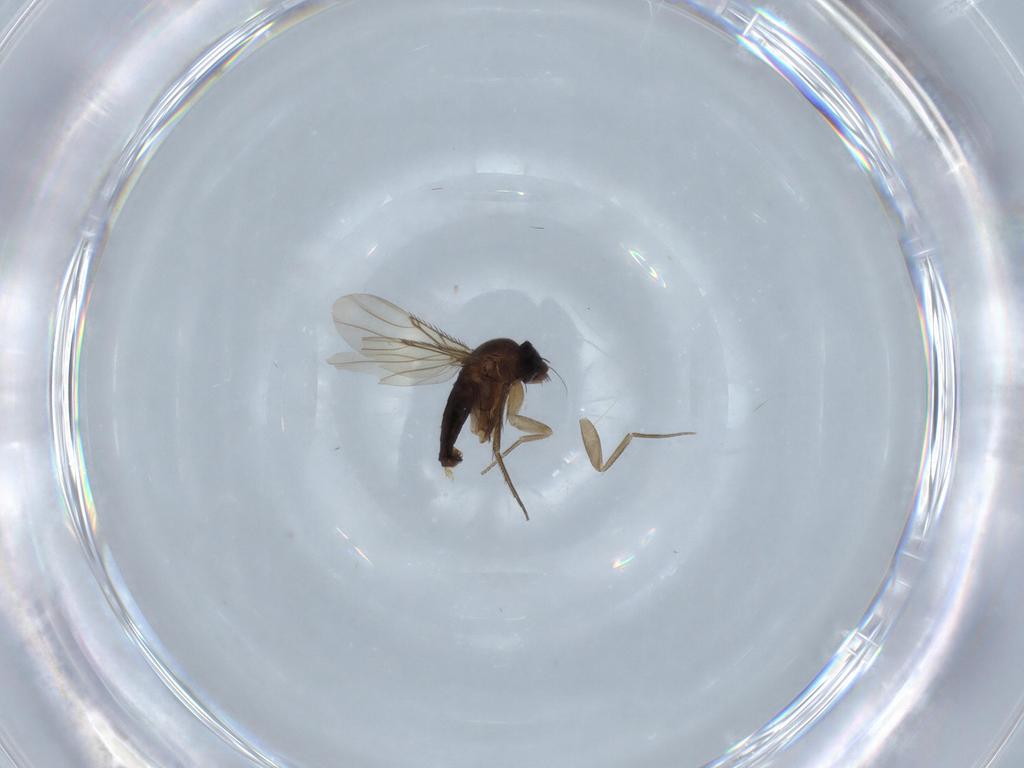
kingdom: Animalia
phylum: Arthropoda
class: Insecta
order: Diptera
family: Phoridae
